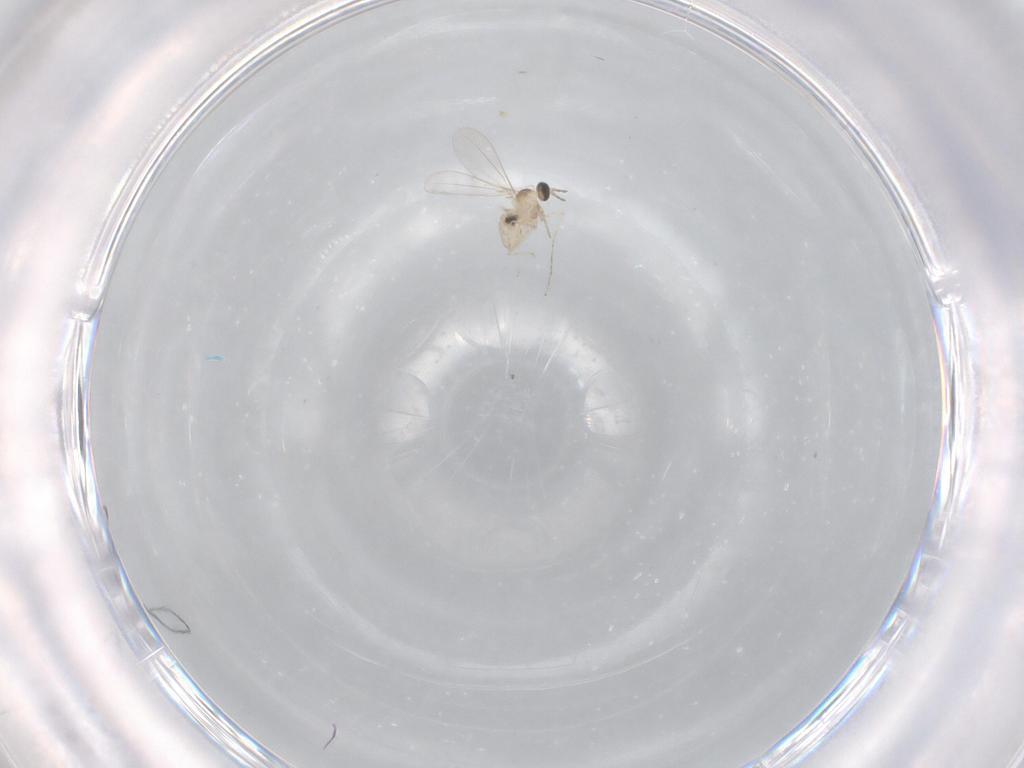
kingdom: Animalia
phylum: Arthropoda
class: Insecta
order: Diptera
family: Cecidomyiidae
